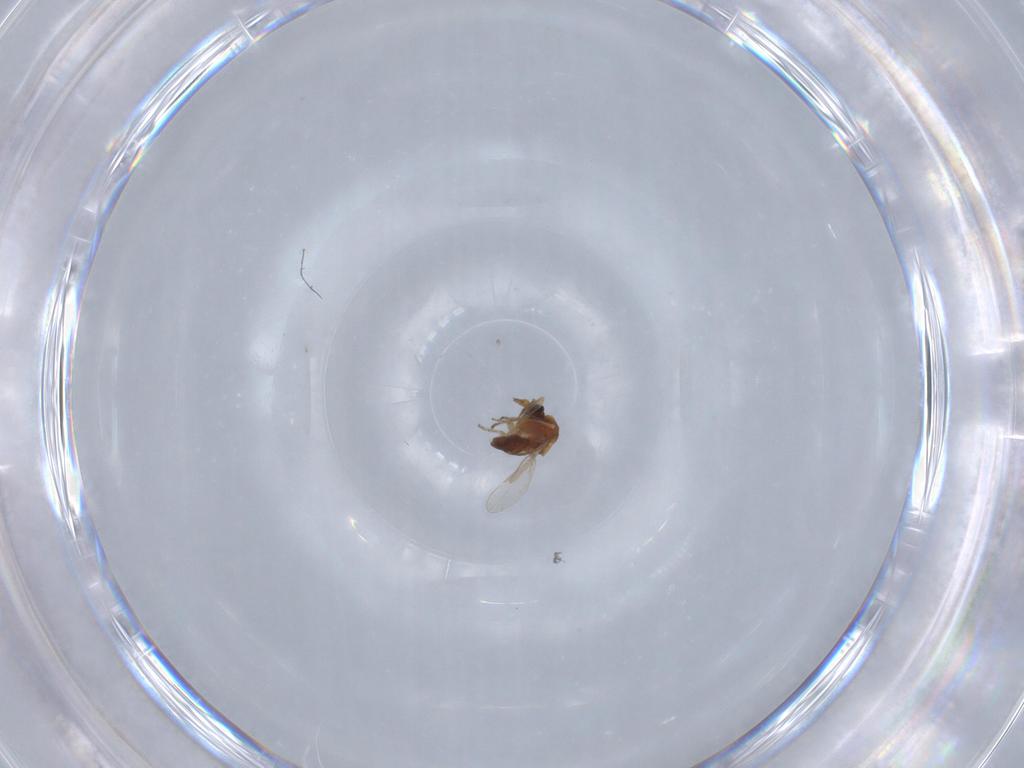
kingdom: Animalia
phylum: Arthropoda
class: Insecta
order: Diptera
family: Ceratopogonidae
